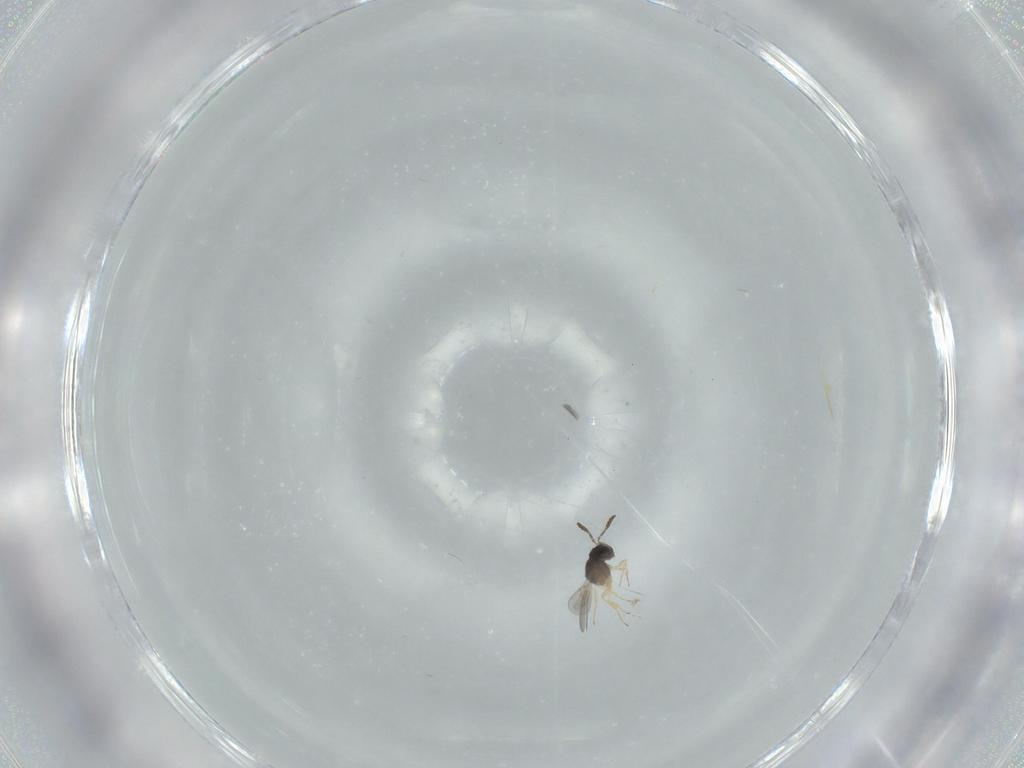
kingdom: Animalia
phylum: Arthropoda
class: Insecta
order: Hymenoptera
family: Scelionidae
